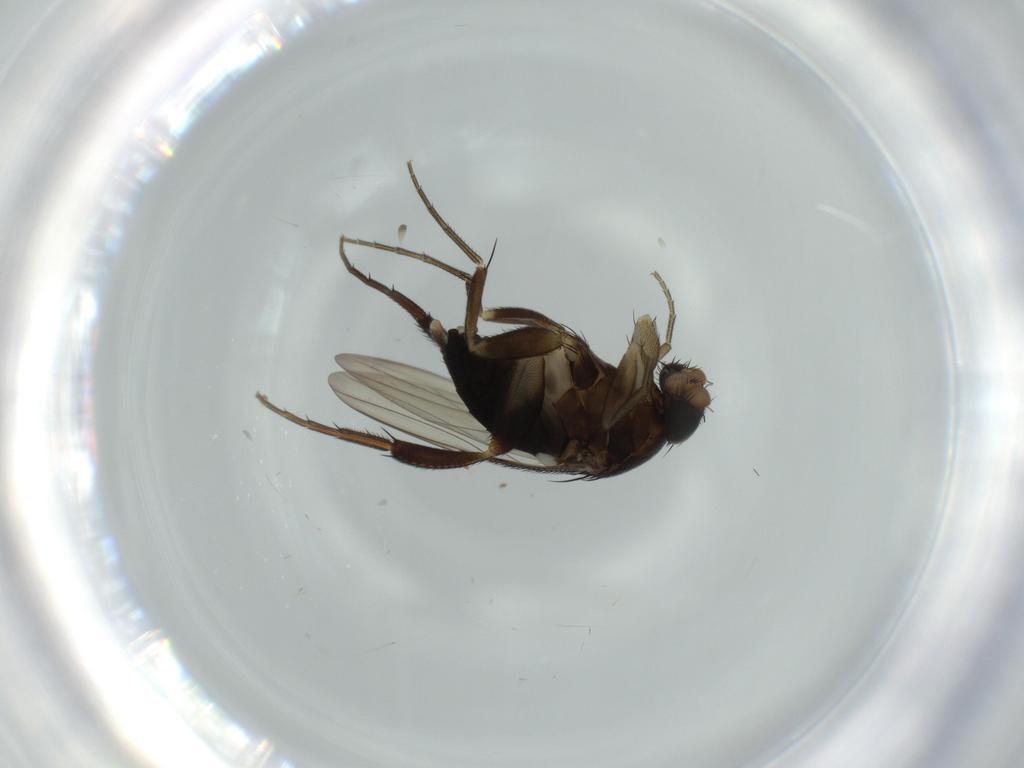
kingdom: Animalia
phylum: Arthropoda
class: Insecta
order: Diptera
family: Phoridae
